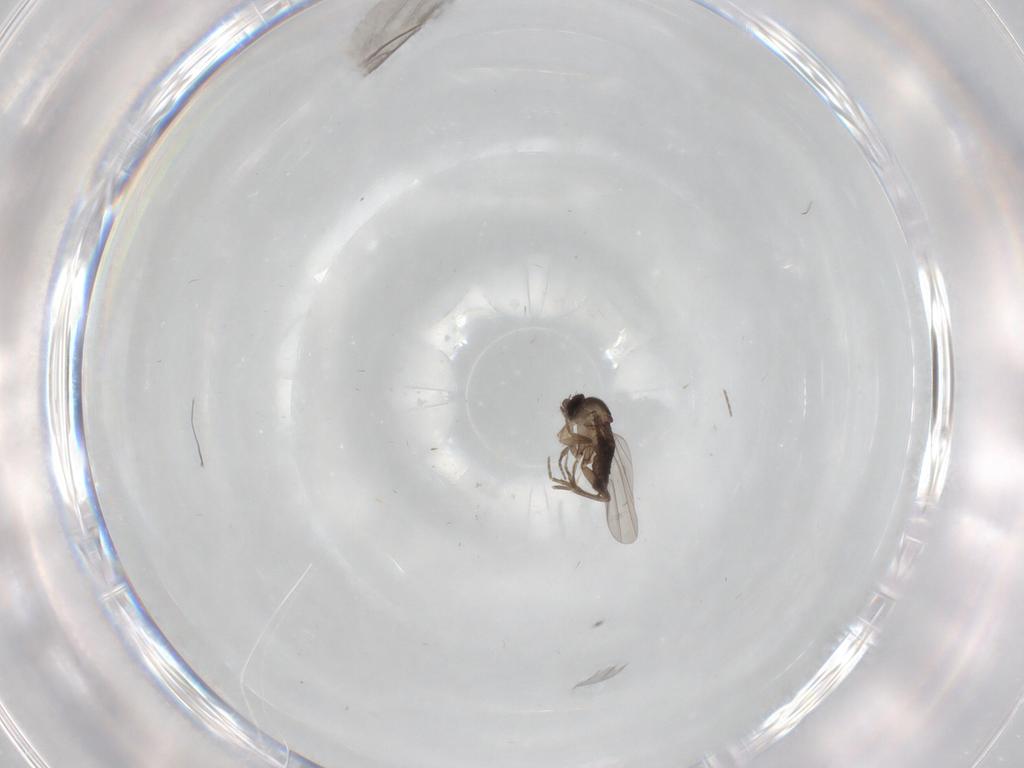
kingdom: Animalia
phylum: Arthropoda
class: Insecta
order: Diptera
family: Phoridae
